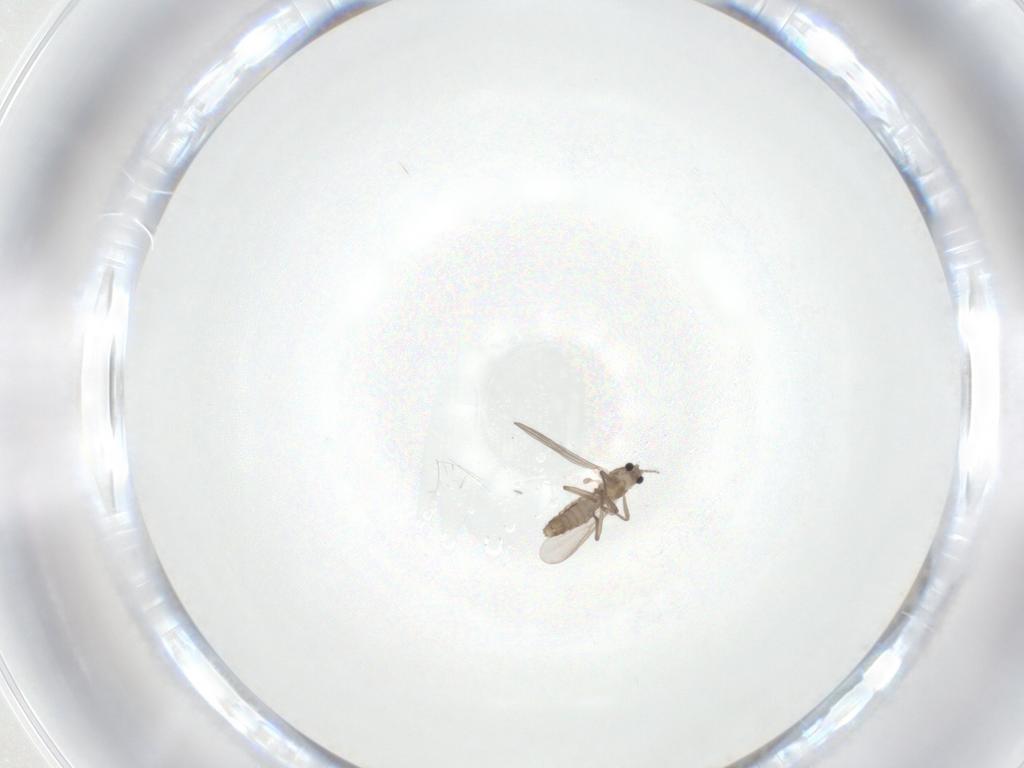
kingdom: Animalia
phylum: Arthropoda
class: Insecta
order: Diptera
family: Chironomidae
